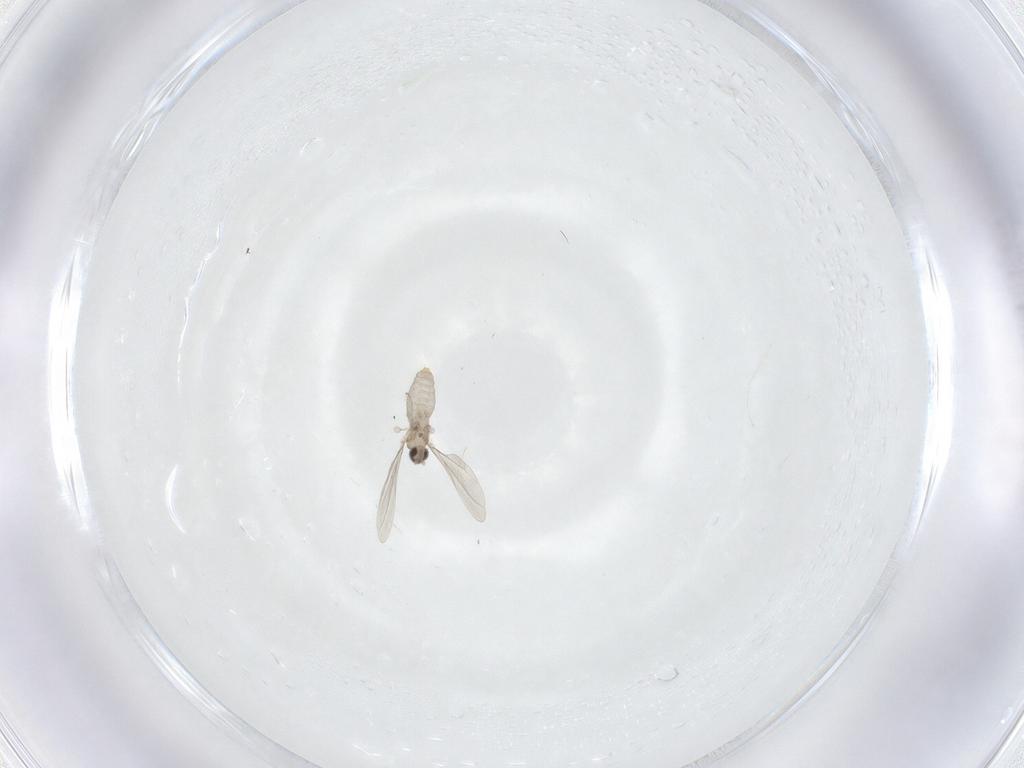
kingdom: Animalia
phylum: Arthropoda
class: Insecta
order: Diptera
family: Cecidomyiidae
